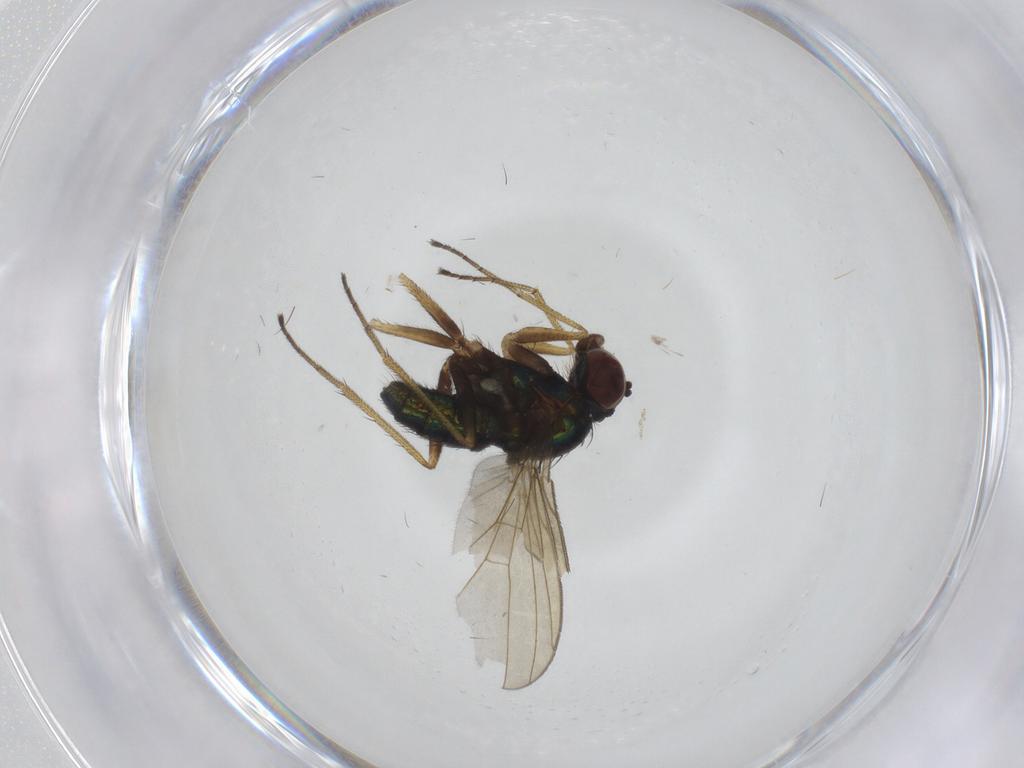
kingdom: Animalia
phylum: Arthropoda
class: Insecta
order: Diptera
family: Dolichopodidae
